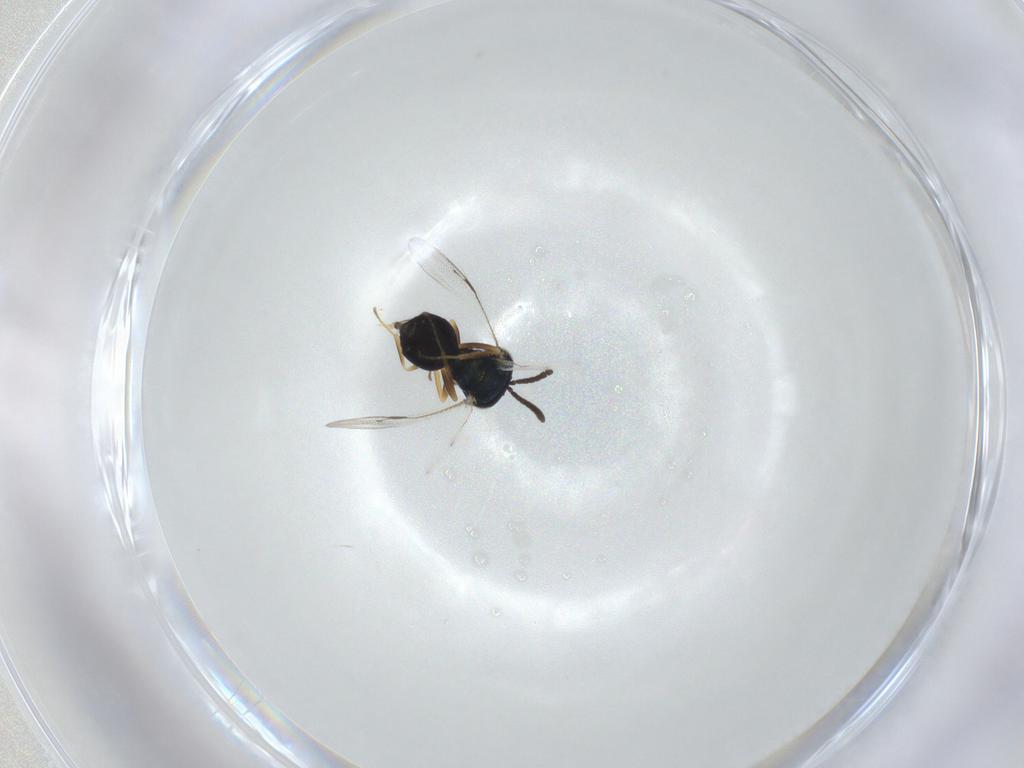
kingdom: Animalia
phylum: Arthropoda
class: Insecta
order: Hymenoptera
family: Pteromalidae
